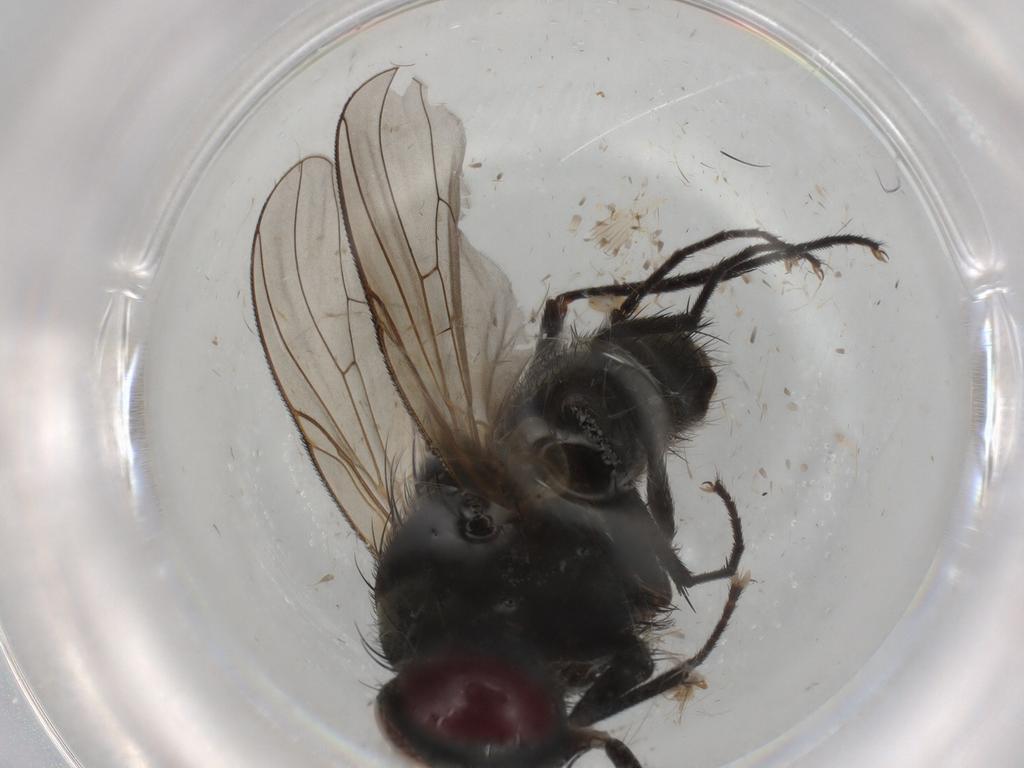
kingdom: Animalia
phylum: Arthropoda
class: Insecta
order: Diptera
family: Muscidae
